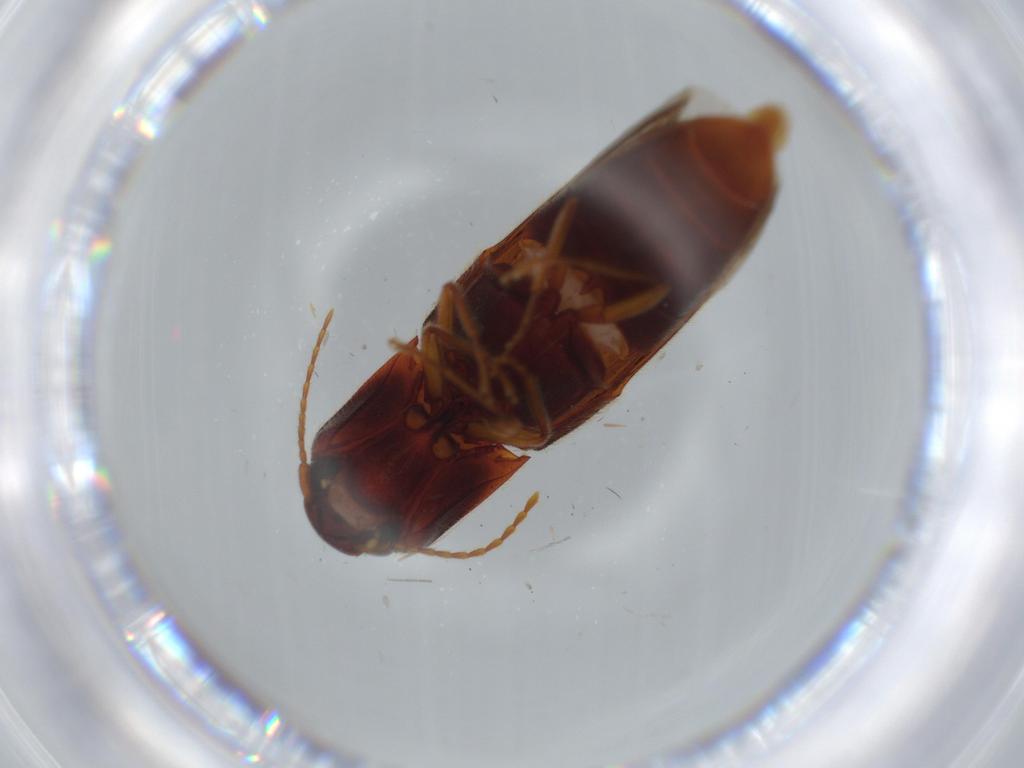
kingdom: Animalia
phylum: Arthropoda
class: Insecta
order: Coleoptera
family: Elateridae
